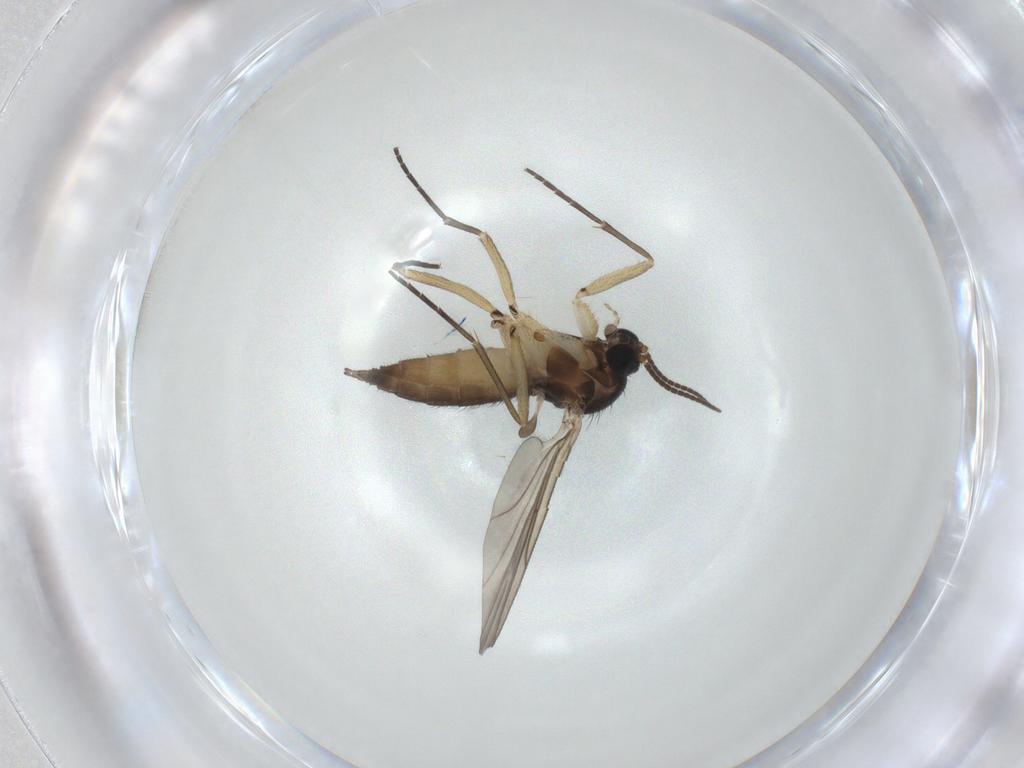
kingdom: Animalia
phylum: Arthropoda
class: Insecta
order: Diptera
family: Sciaridae
